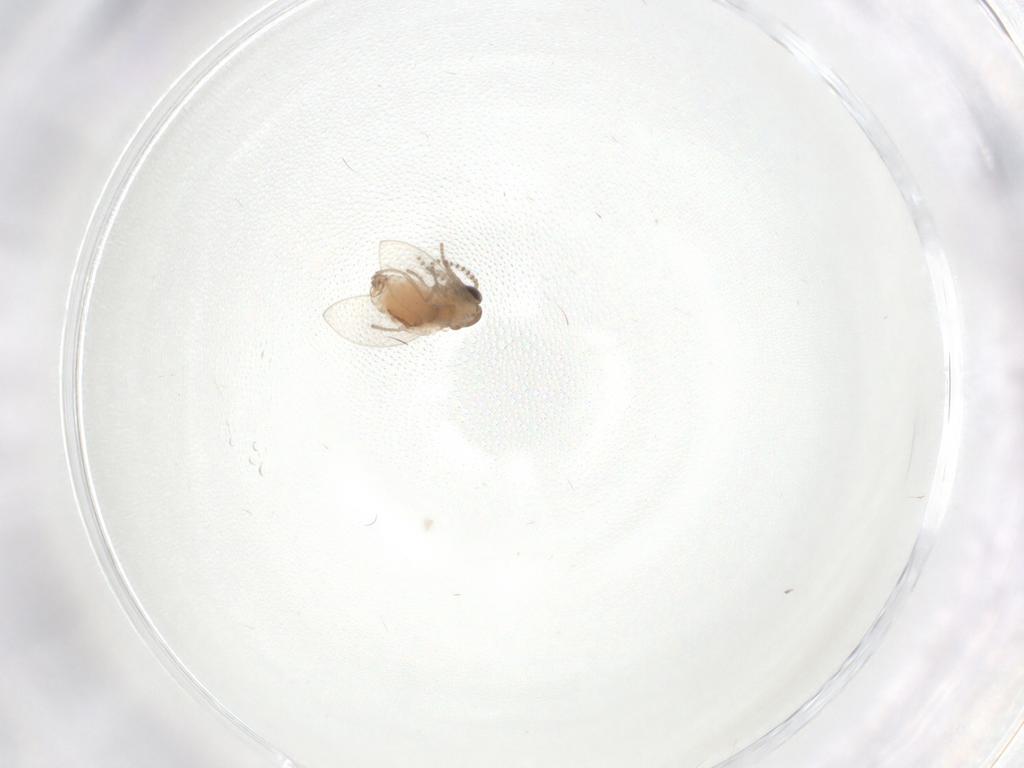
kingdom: Animalia
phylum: Arthropoda
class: Insecta
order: Diptera
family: Psychodidae
